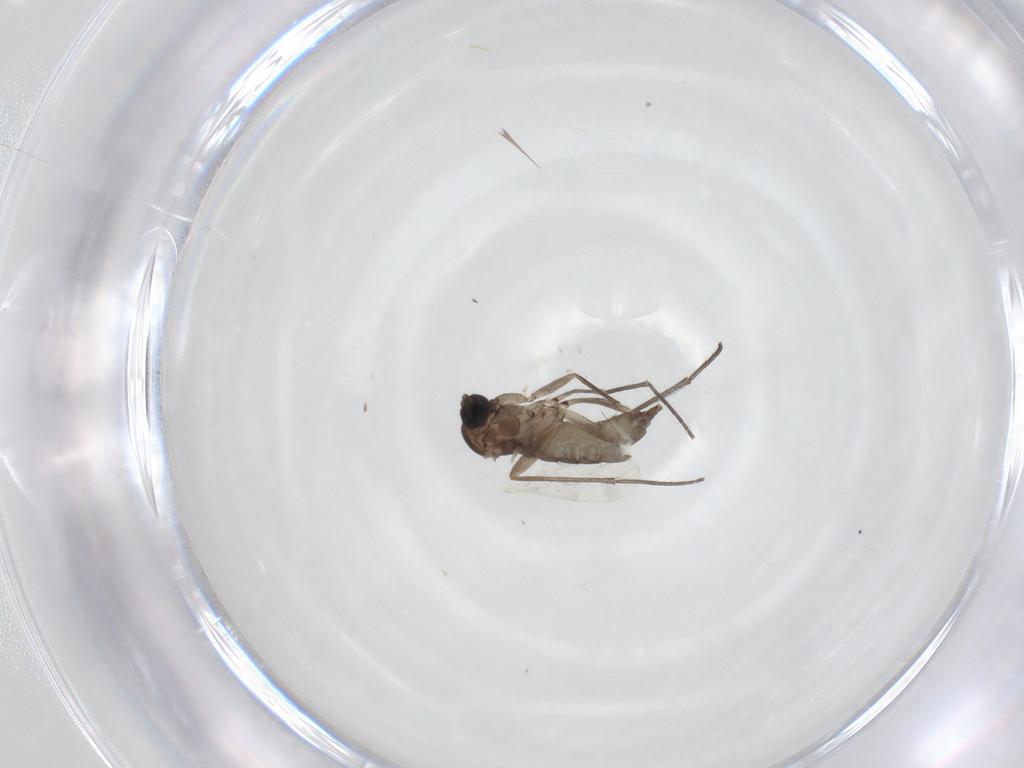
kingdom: Animalia
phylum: Arthropoda
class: Insecta
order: Diptera
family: Sciaridae
